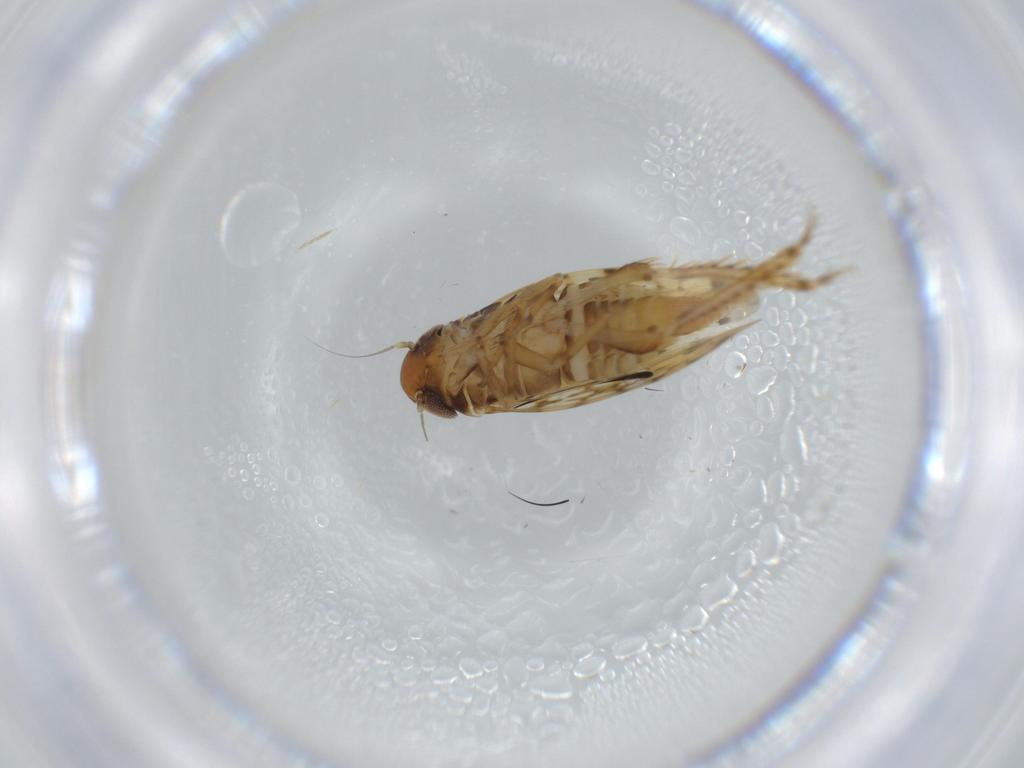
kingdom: Animalia
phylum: Arthropoda
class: Insecta
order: Hemiptera
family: Cicadellidae
